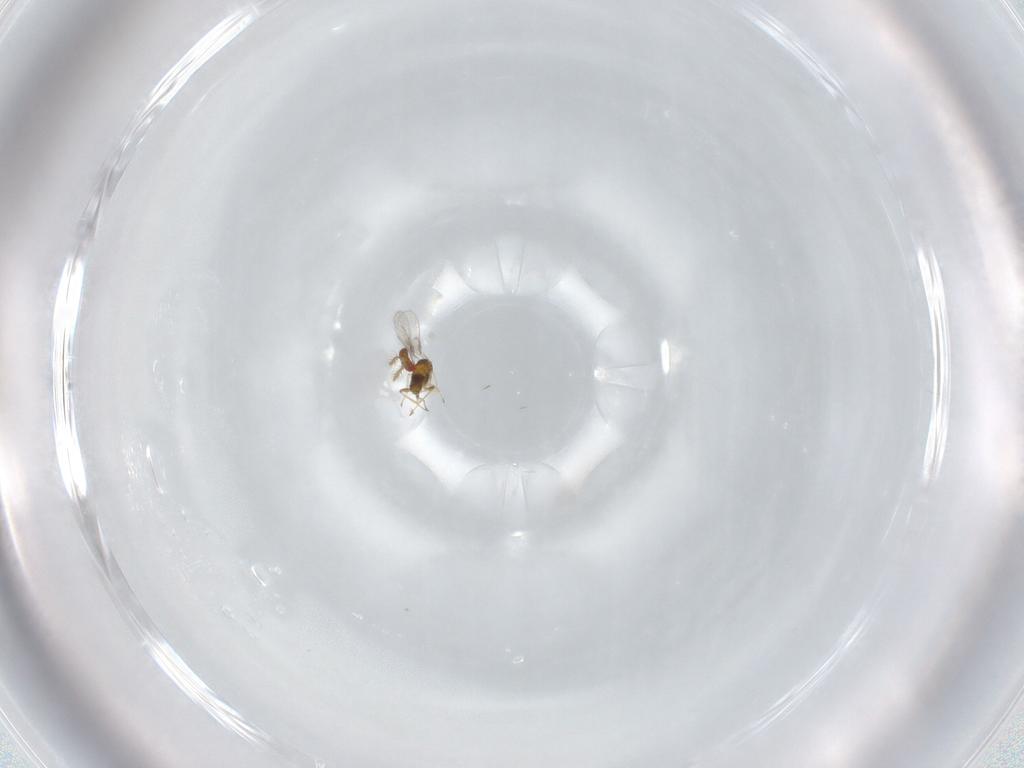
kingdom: Animalia
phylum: Arthropoda
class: Insecta
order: Hymenoptera
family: Trichogrammatidae
